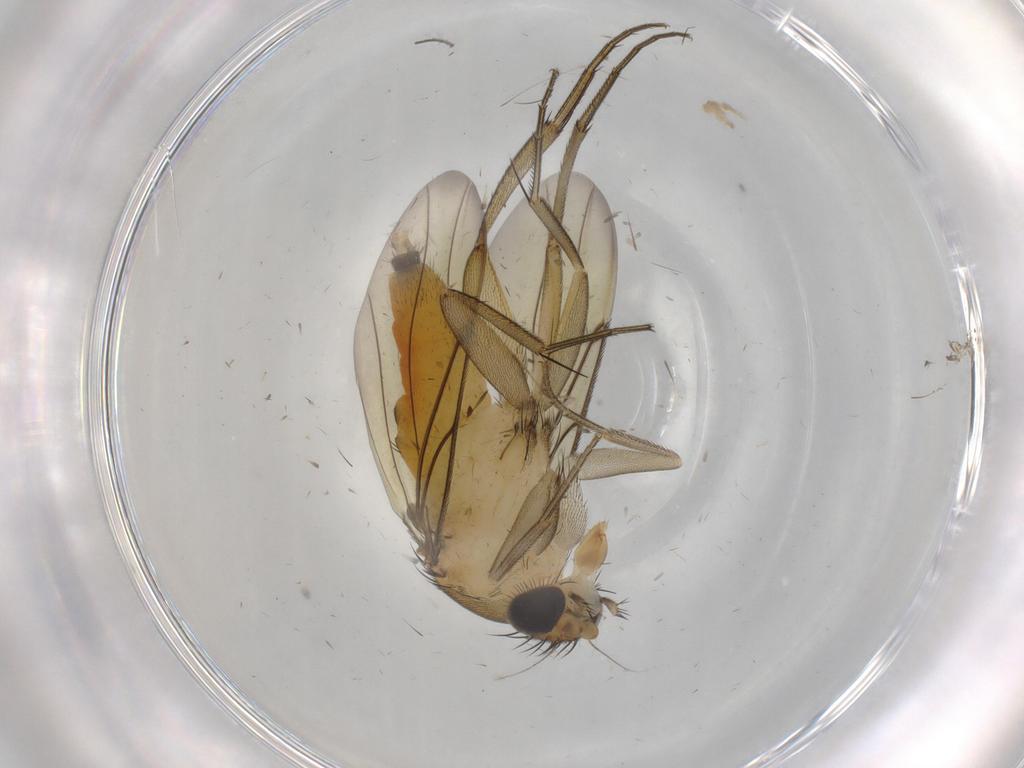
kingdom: Animalia
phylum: Arthropoda
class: Insecta
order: Diptera
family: Cecidomyiidae
